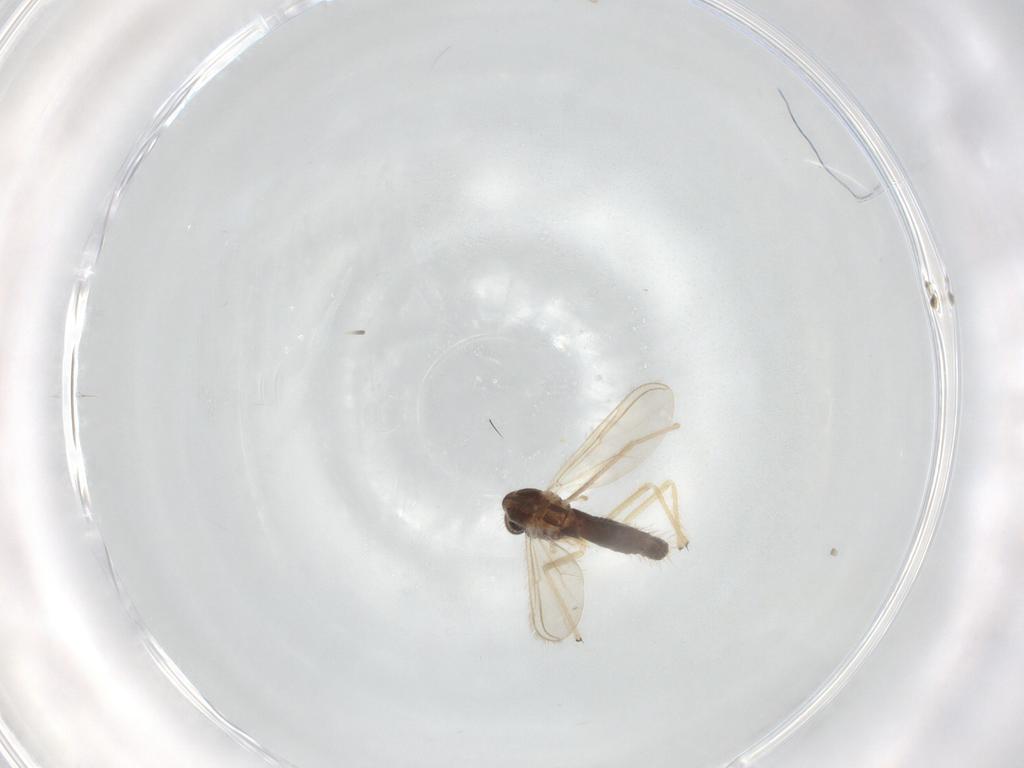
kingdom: Animalia
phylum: Arthropoda
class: Insecta
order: Diptera
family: Chironomidae
